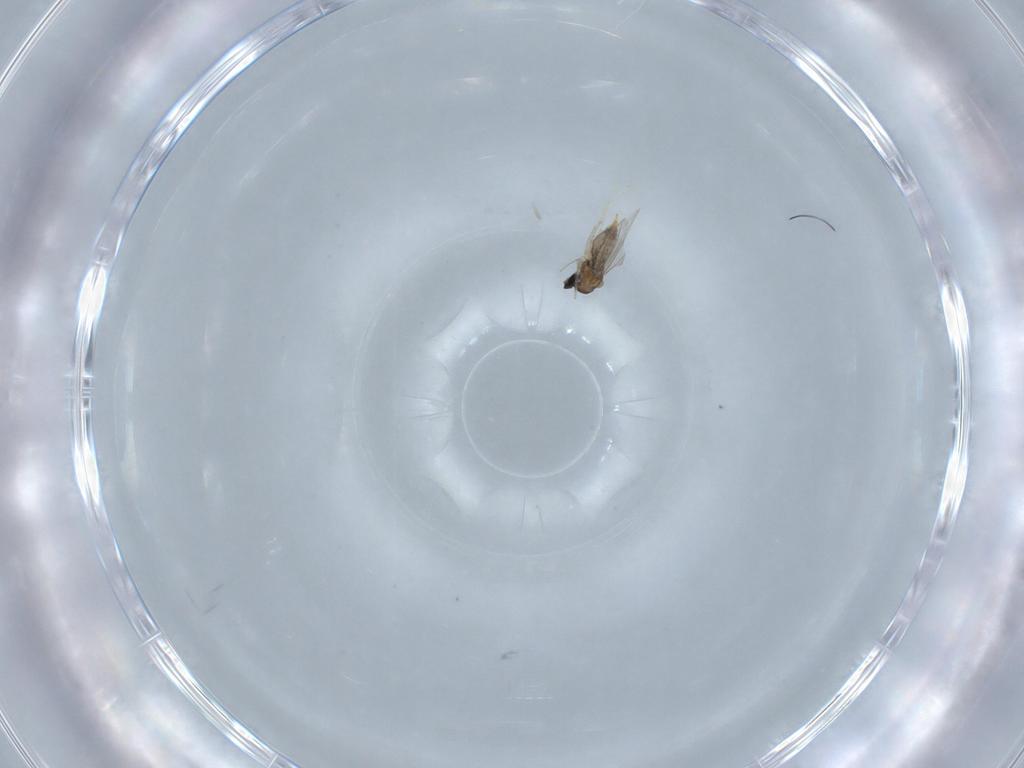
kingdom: Animalia
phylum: Arthropoda
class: Insecta
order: Diptera
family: Cecidomyiidae
